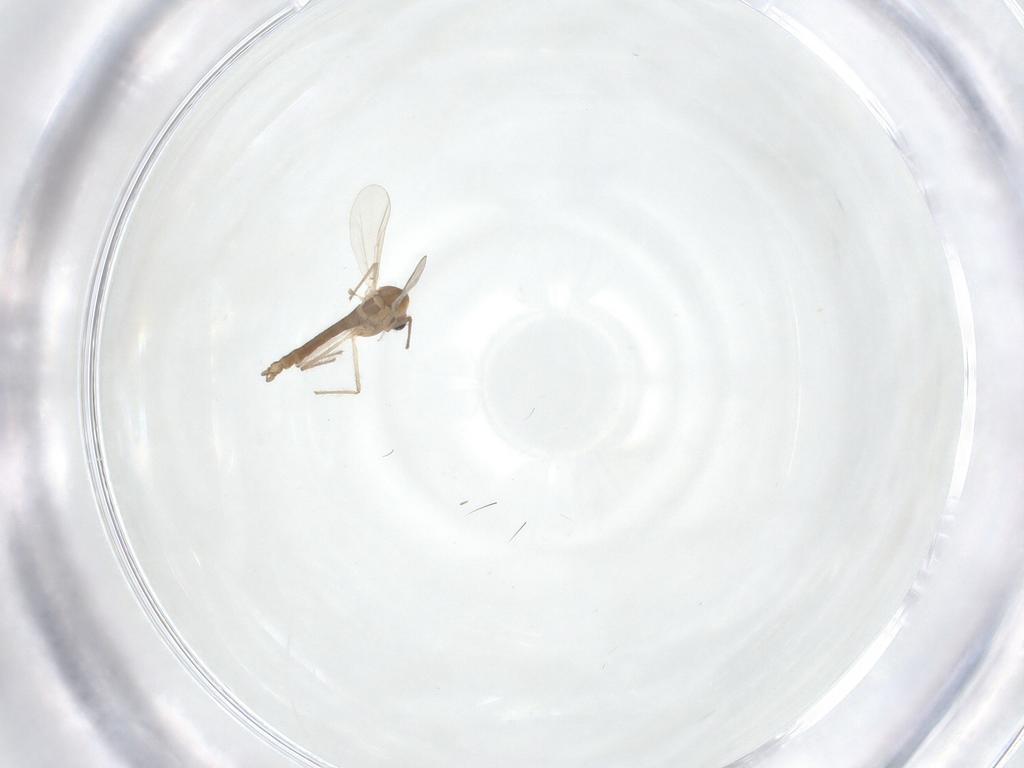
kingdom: Animalia
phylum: Arthropoda
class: Insecta
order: Diptera
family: Chironomidae
